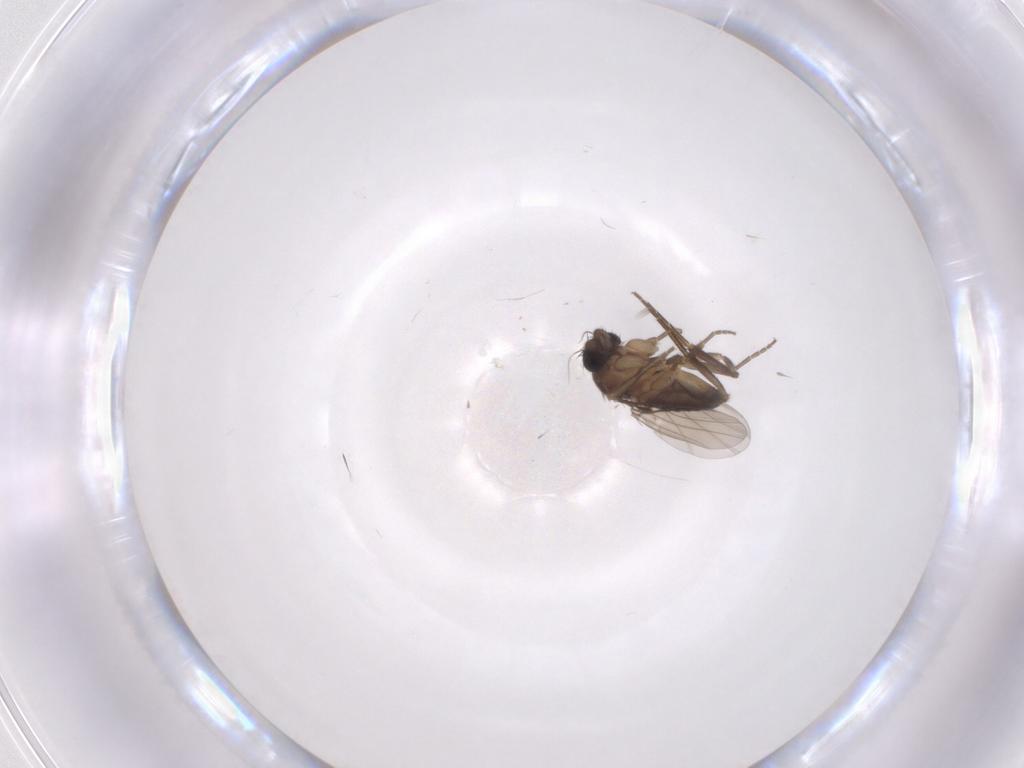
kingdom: Animalia
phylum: Arthropoda
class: Insecta
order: Diptera
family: Phoridae
